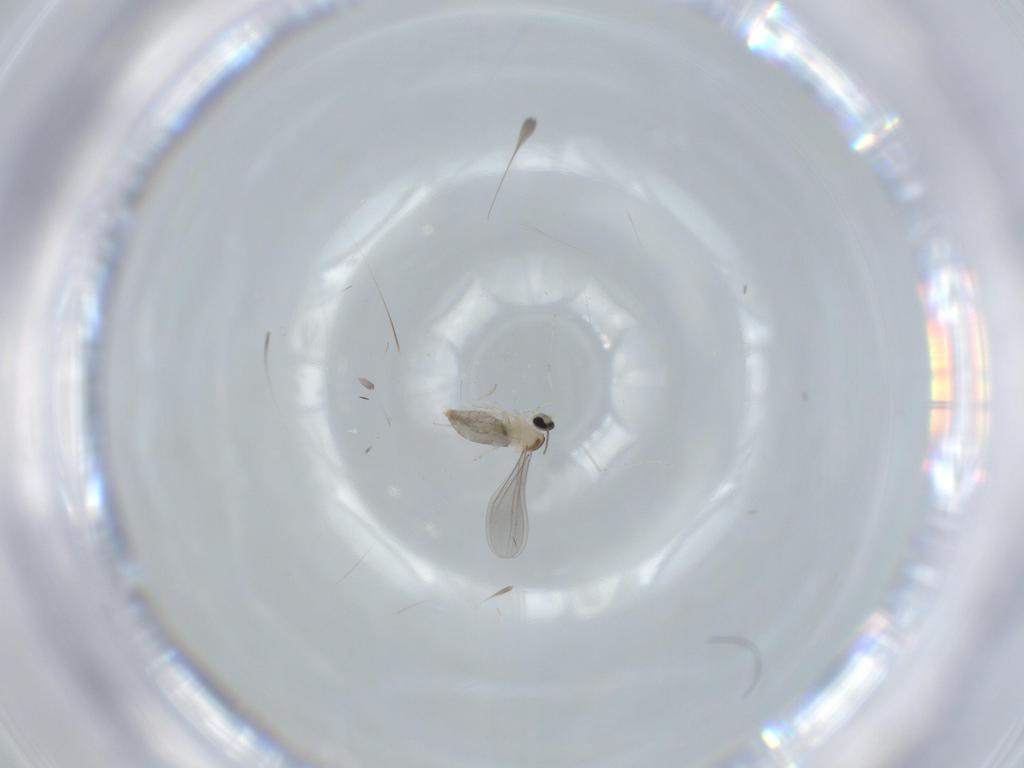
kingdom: Animalia
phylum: Arthropoda
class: Insecta
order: Diptera
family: Chironomidae
